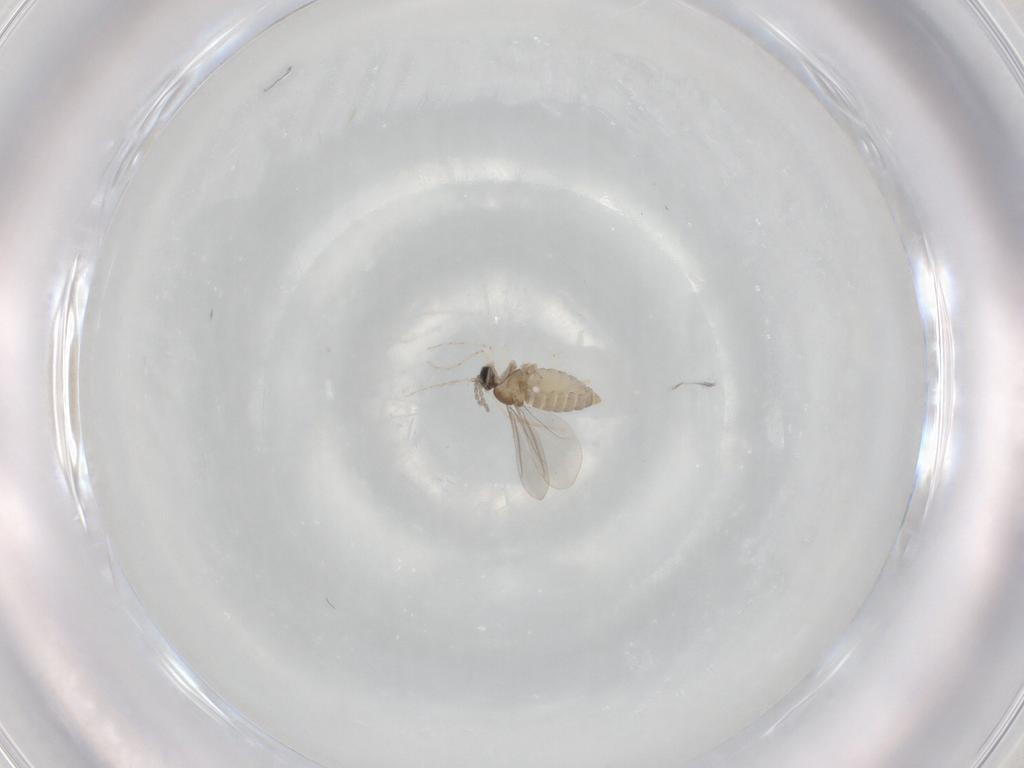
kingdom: Animalia
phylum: Arthropoda
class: Insecta
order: Diptera
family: Cecidomyiidae
